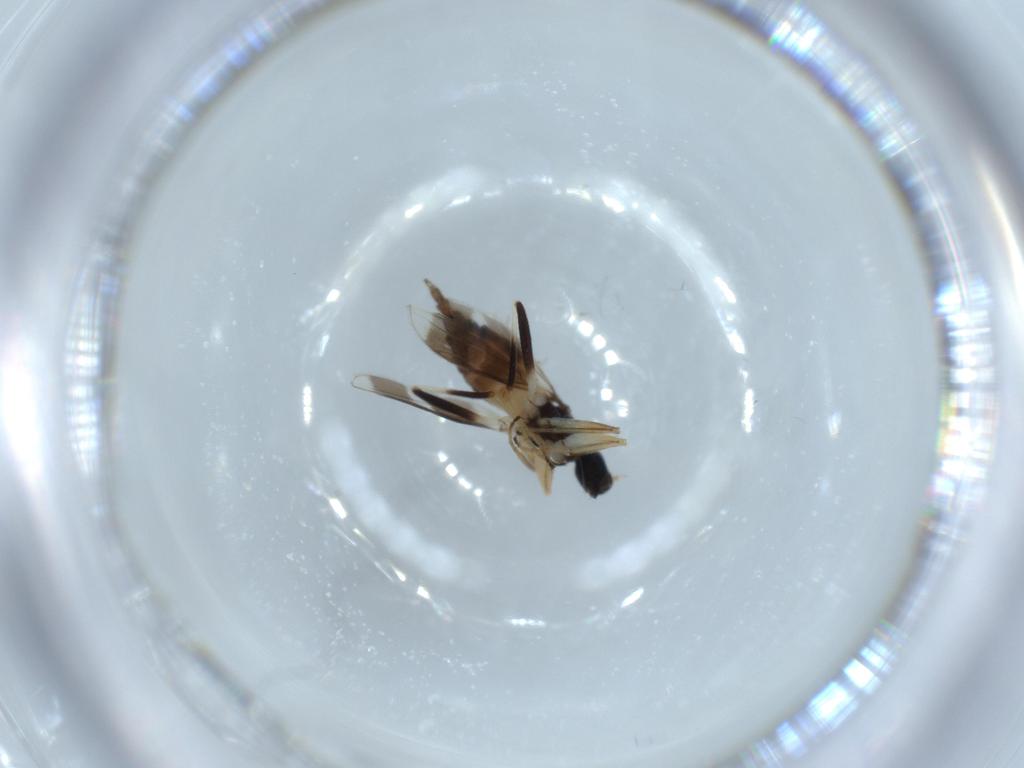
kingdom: Animalia
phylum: Arthropoda
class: Insecta
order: Diptera
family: Hybotidae
